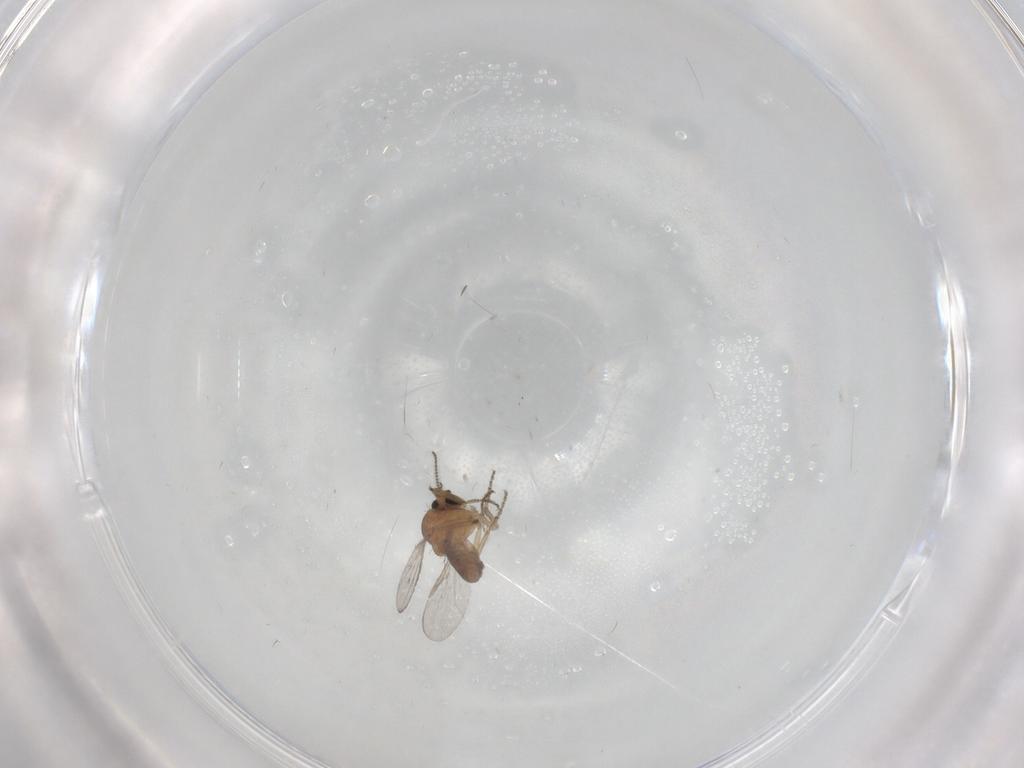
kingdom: Animalia
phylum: Arthropoda
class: Insecta
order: Diptera
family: Ceratopogonidae
